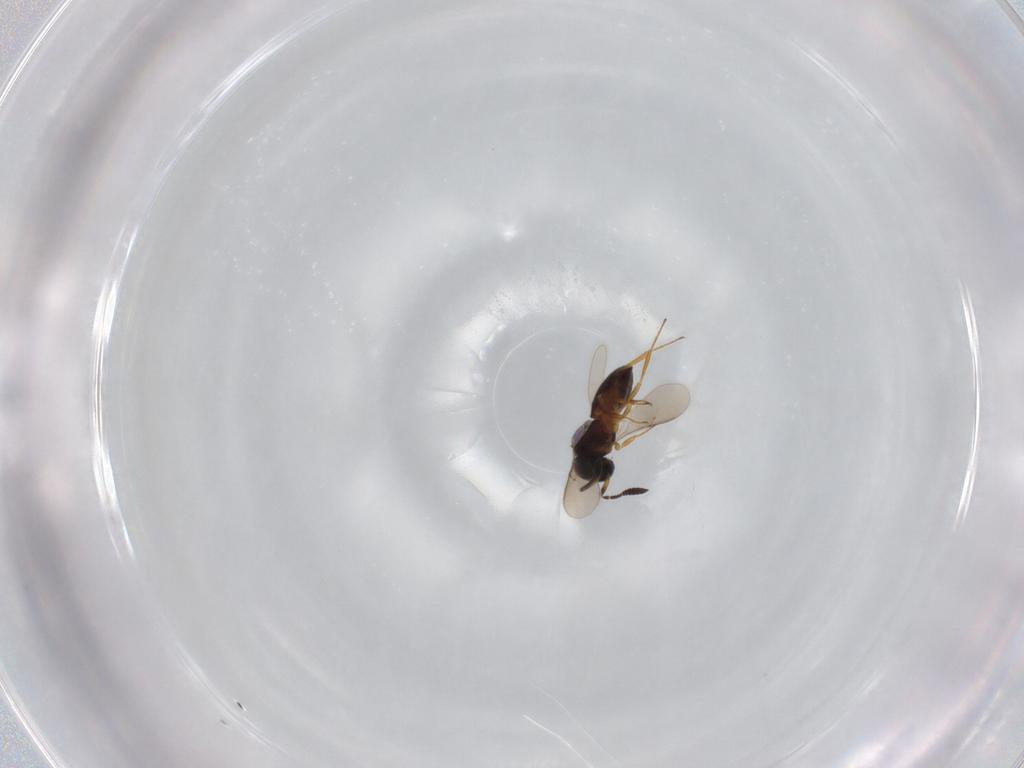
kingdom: Animalia
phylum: Arthropoda
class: Insecta
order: Hymenoptera
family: Scelionidae
